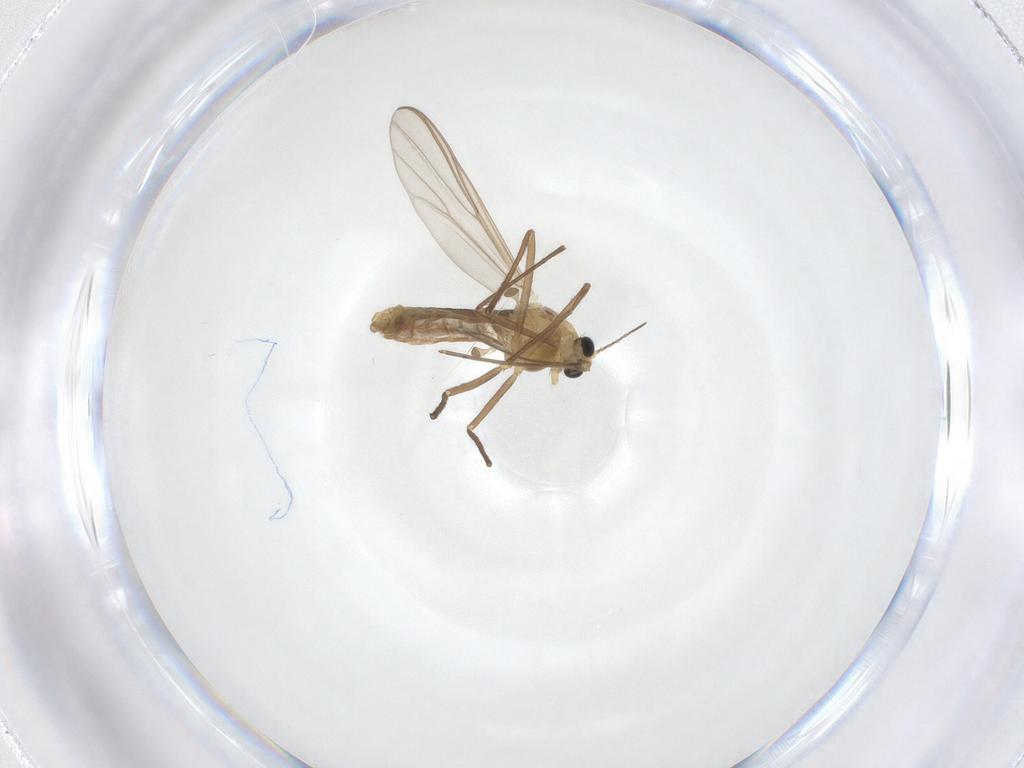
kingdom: Animalia
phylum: Arthropoda
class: Insecta
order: Diptera
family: Chironomidae
